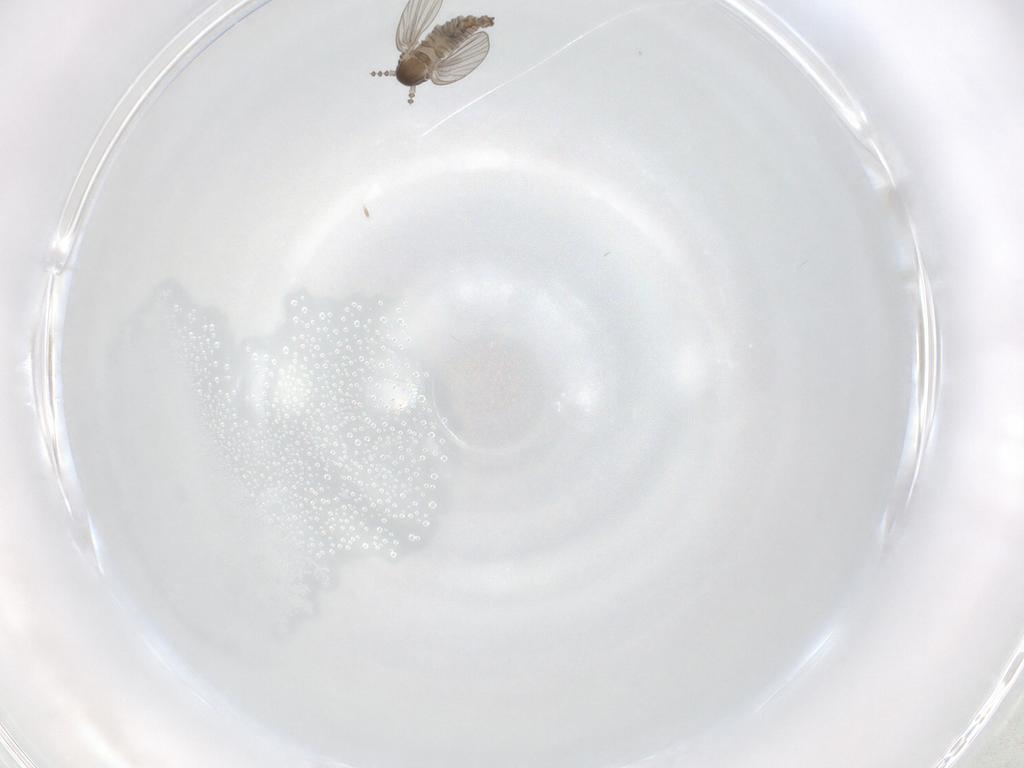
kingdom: Animalia
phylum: Arthropoda
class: Insecta
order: Diptera
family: Psychodidae
